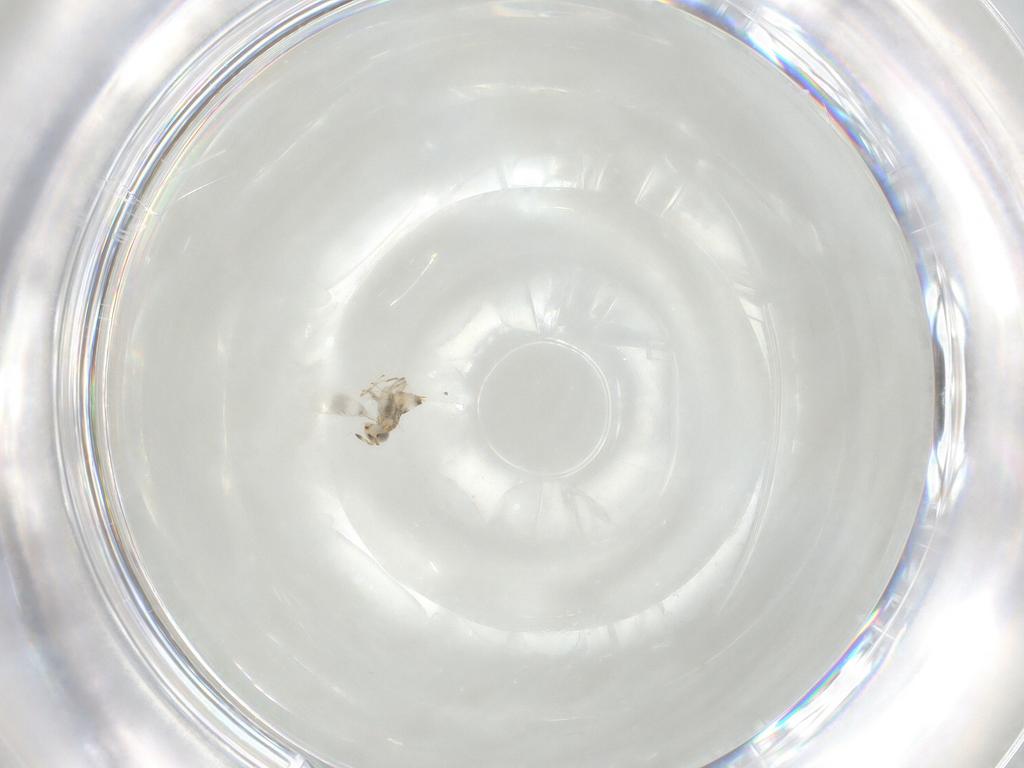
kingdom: Animalia
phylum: Arthropoda
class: Insecta
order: Hymenoptera
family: Aphelinidae
